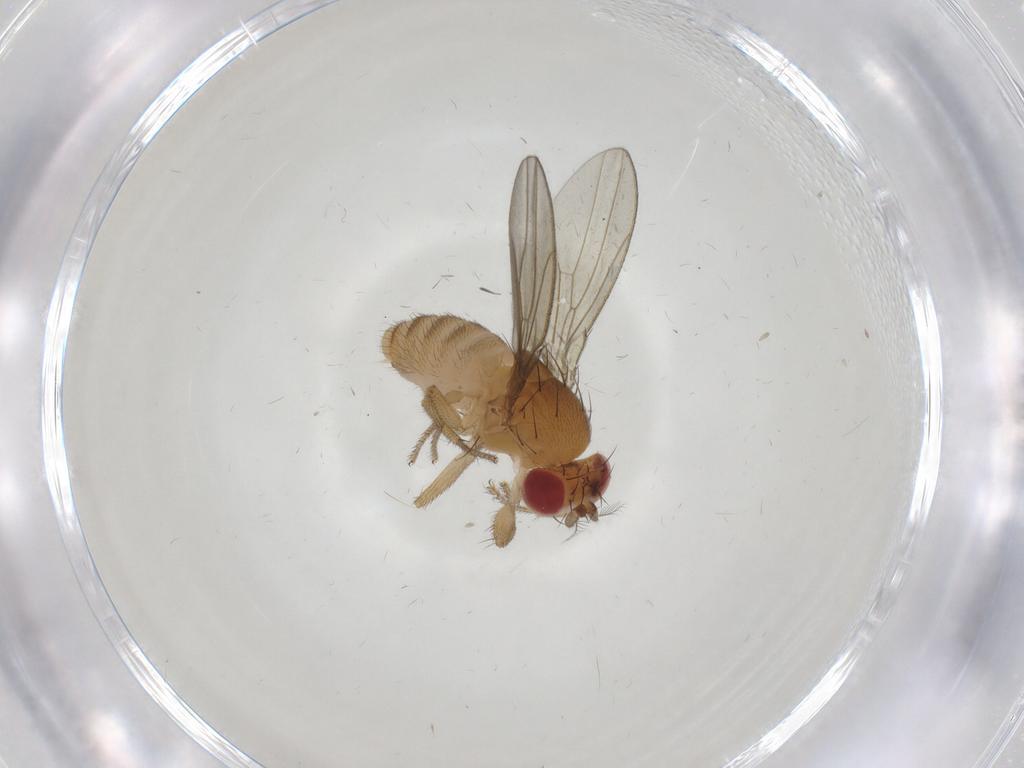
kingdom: Animalia
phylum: Arthropoda
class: Insecta
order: Diptera
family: Drosophilidae
